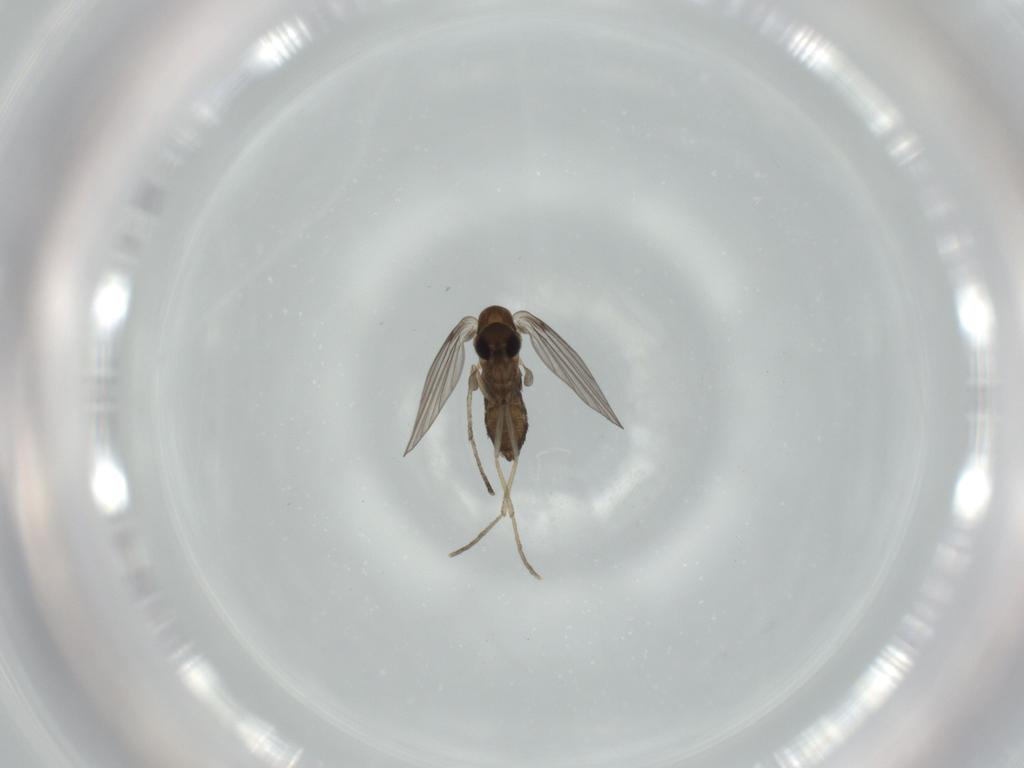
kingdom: Animalia
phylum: Arthropoda
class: Insecta
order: Diptera
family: Psychodidae
